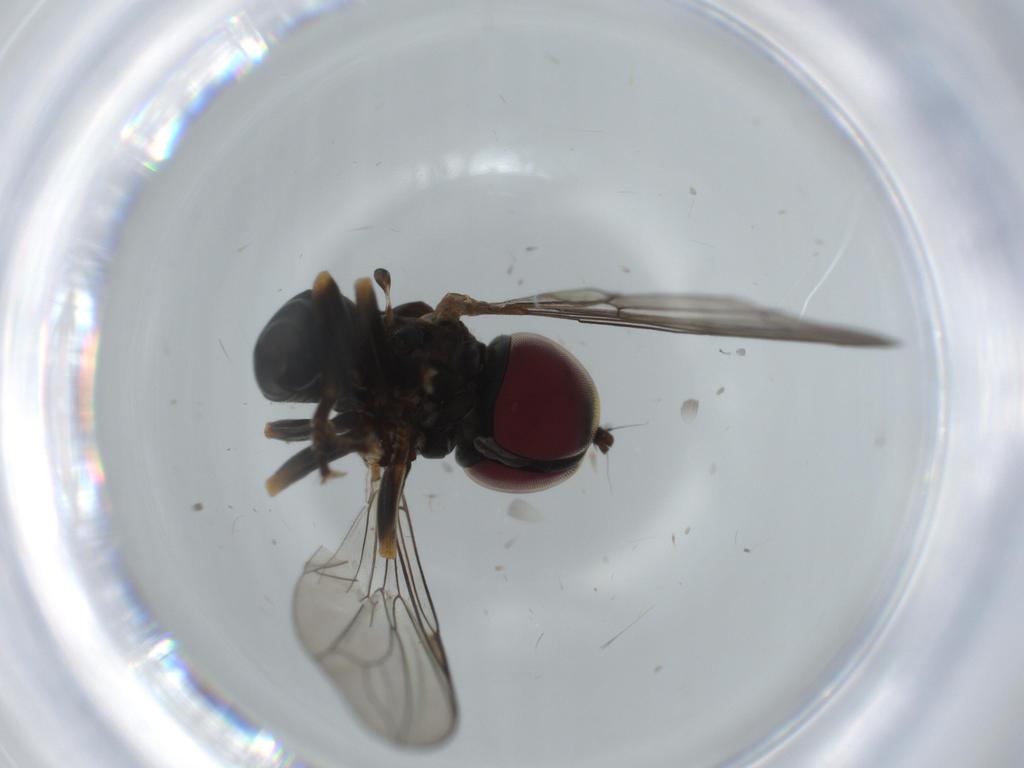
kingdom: Animalia
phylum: Arthropoda
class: Insecta
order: Diptera
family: Phoridae
